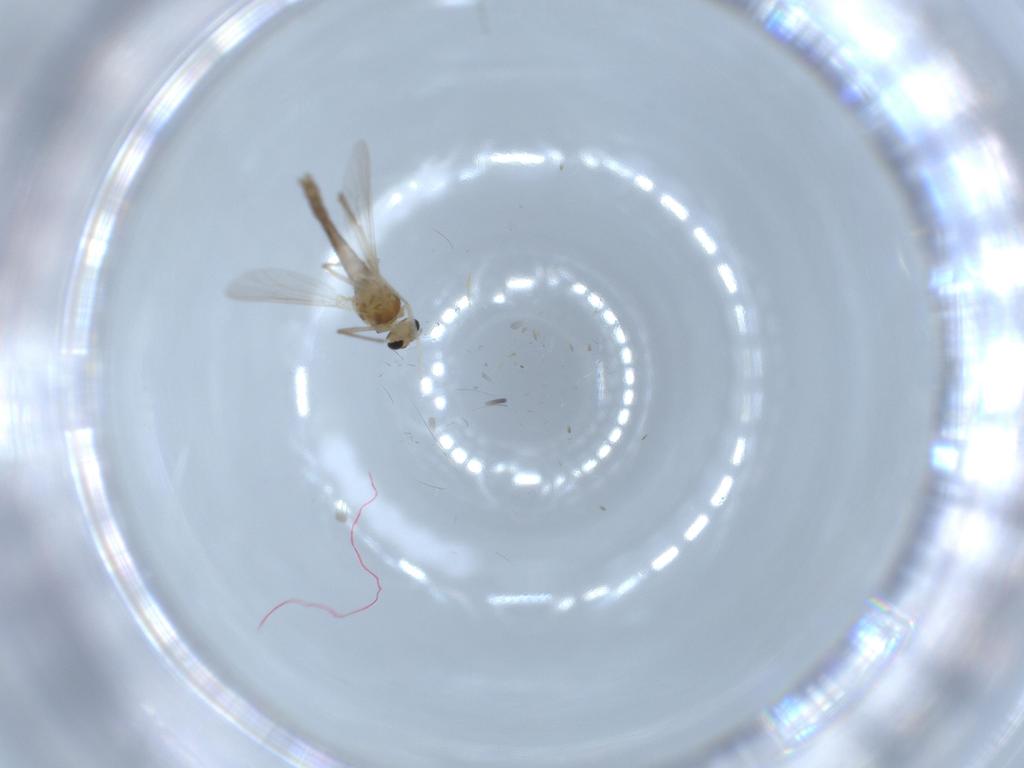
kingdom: Animalia
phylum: Arthropoda
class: Insecta
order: Diptera
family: Chironomidae
